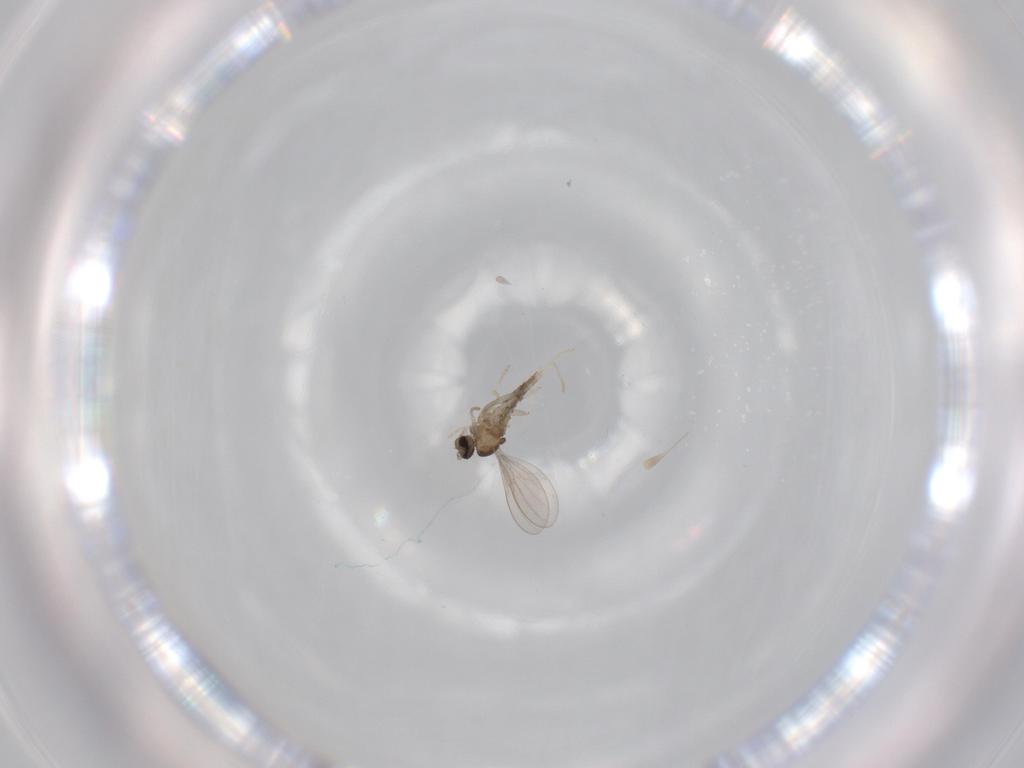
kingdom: Animalia
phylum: Arthropoda
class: Insecta
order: Diptera
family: Cecidomyiidae
